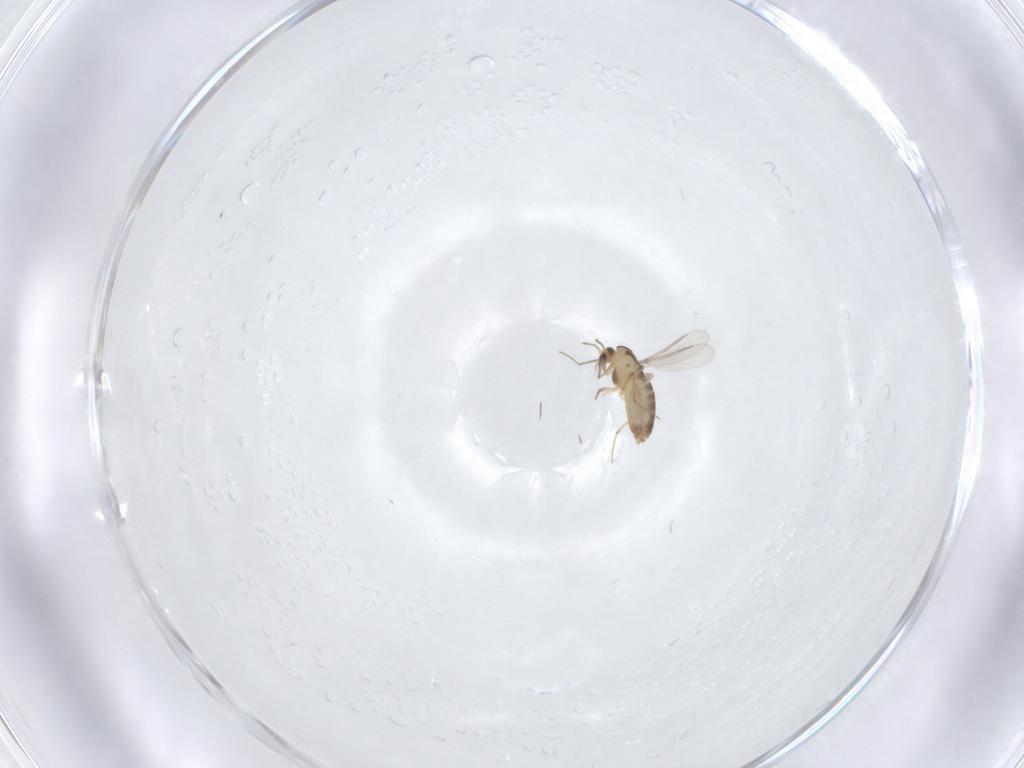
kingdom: Animalia
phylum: Arthropoda
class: Insecta
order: Diptera
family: Chironomidae
